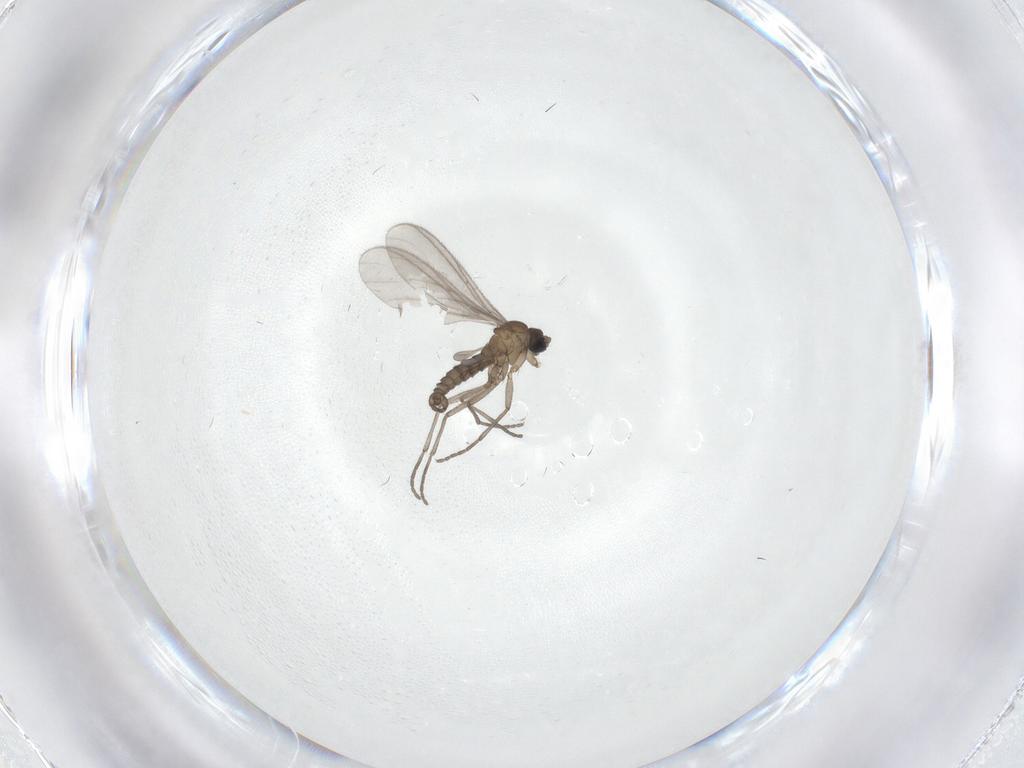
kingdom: Animalia
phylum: Arthropoda
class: Insecta
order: Diptera
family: Sciaridae
